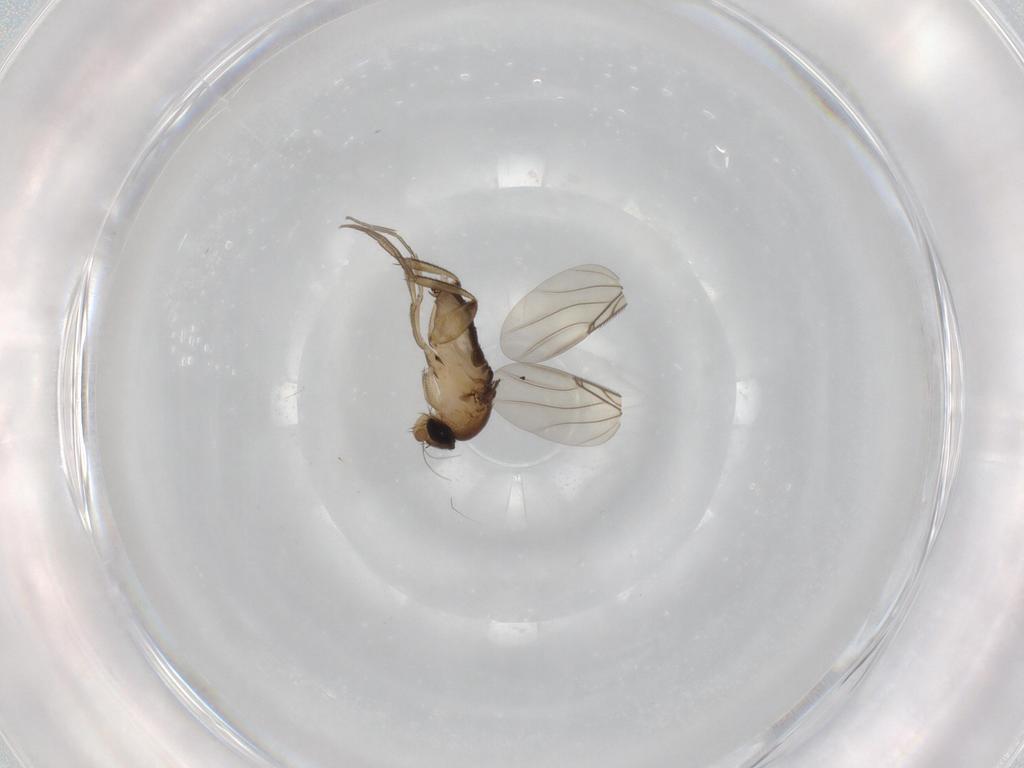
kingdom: Animalia
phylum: Arthropoda
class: Insecta
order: Diptera
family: Phoridae
